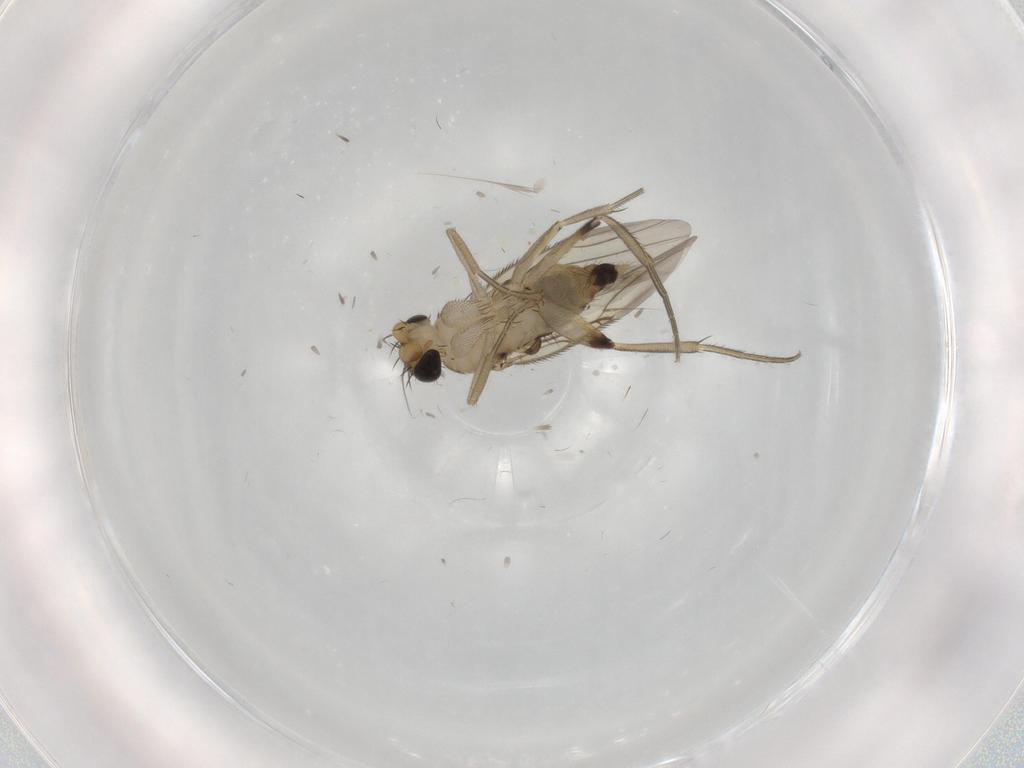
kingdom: Animalia
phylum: Arthropoda
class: Insecta
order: Diptera
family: Phoridae
